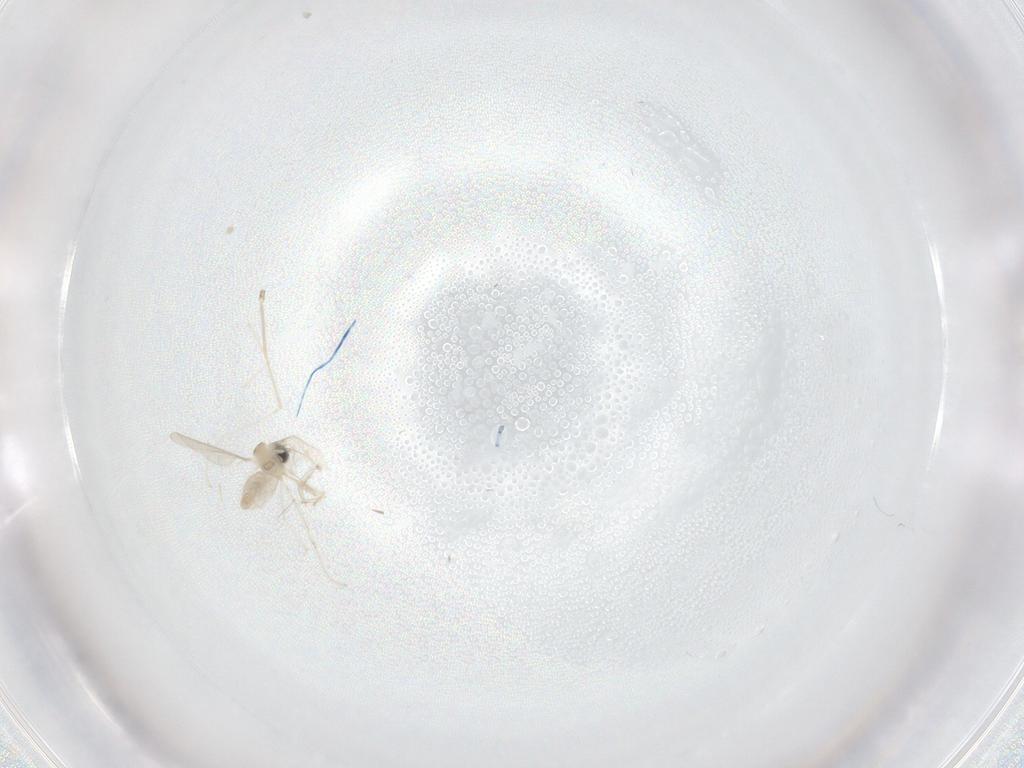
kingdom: Animalia
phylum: Arthropoda
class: Insecta
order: Diptera
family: Cecidomyiidae
